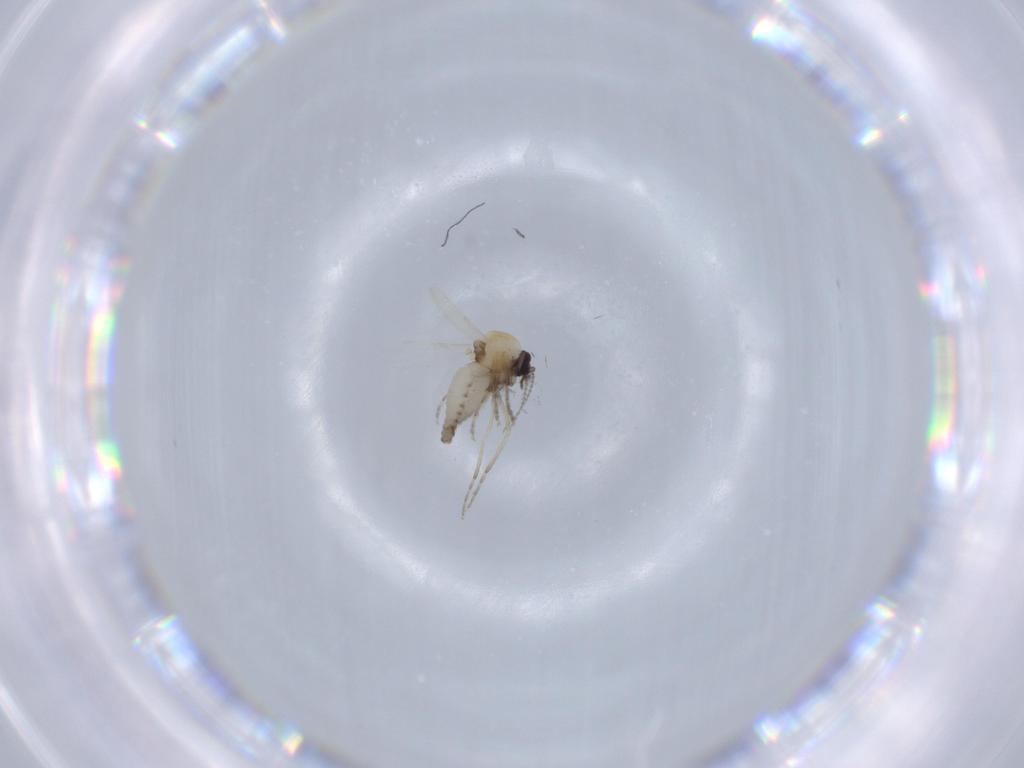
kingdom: Animalia
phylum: Arthropoda
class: Insecta
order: Diptera
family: Ceratopogonidae
